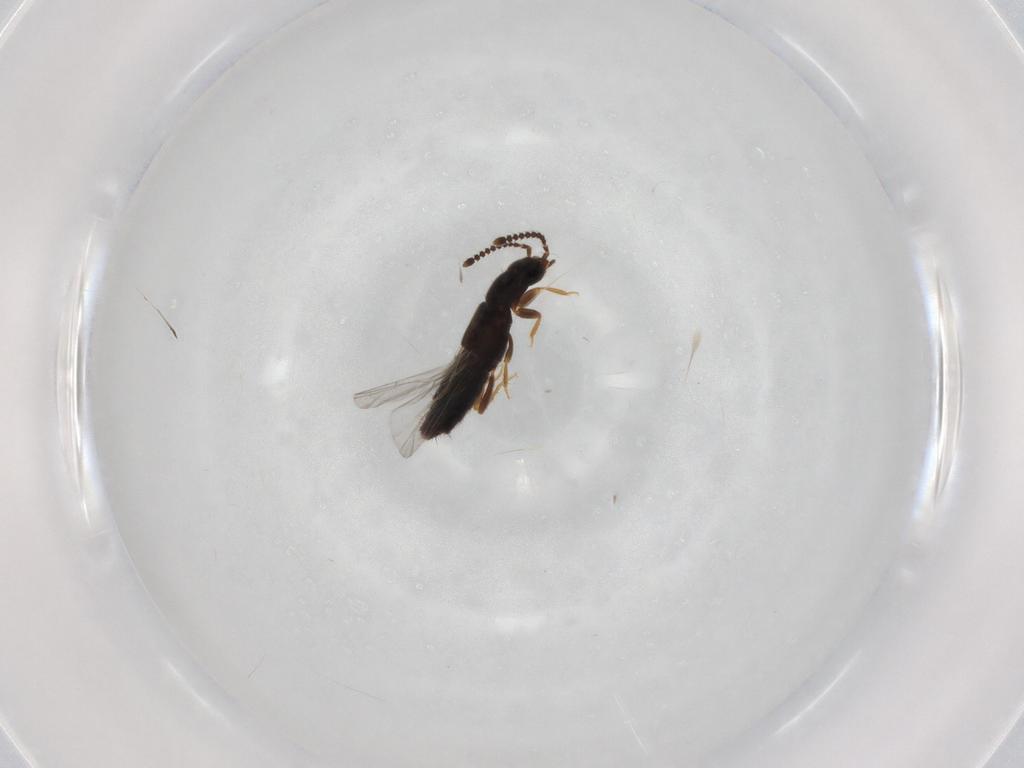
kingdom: Animalia
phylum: Arthropoda
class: Insecta
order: Coleoptera
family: Staphylinidae
